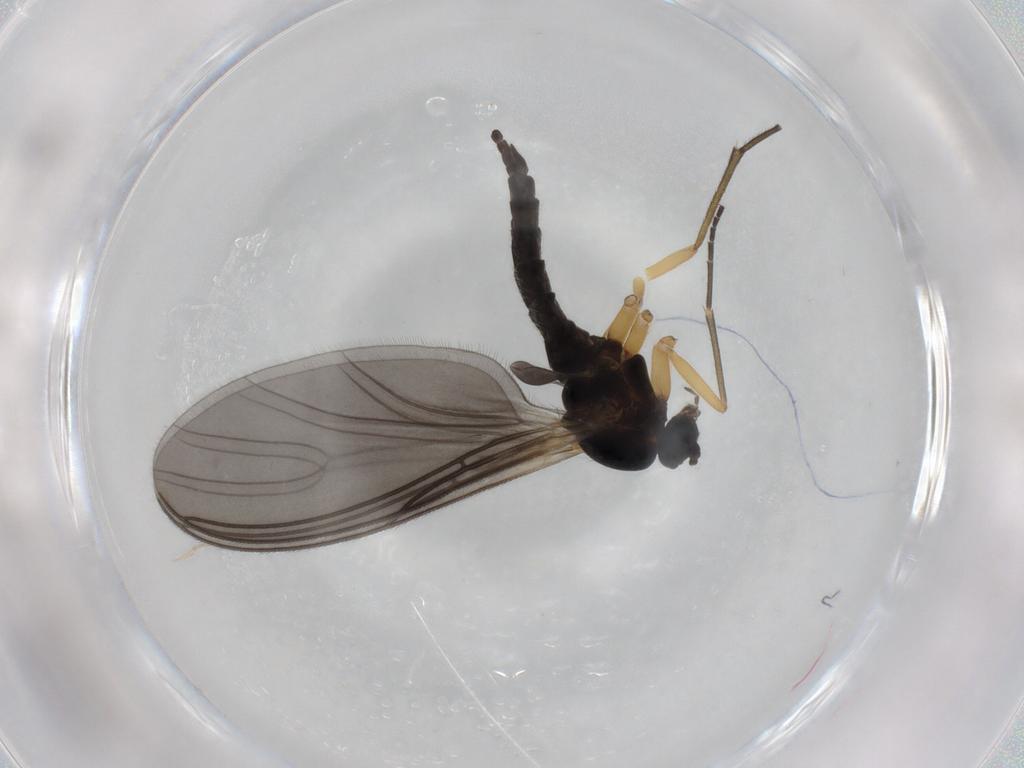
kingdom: Animalia
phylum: Arthropoda
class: Insecta
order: Diptera
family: Sciaridae
